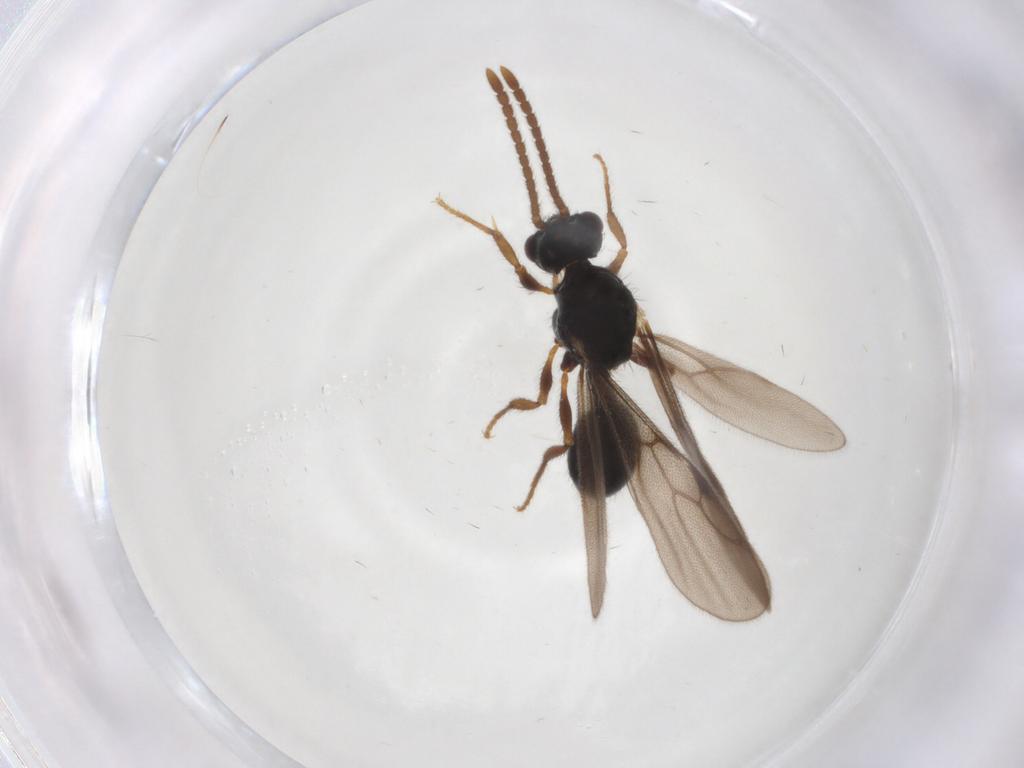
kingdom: Animalia
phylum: Arthropoda
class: Insecta
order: Hymenoptera
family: Formicidae
